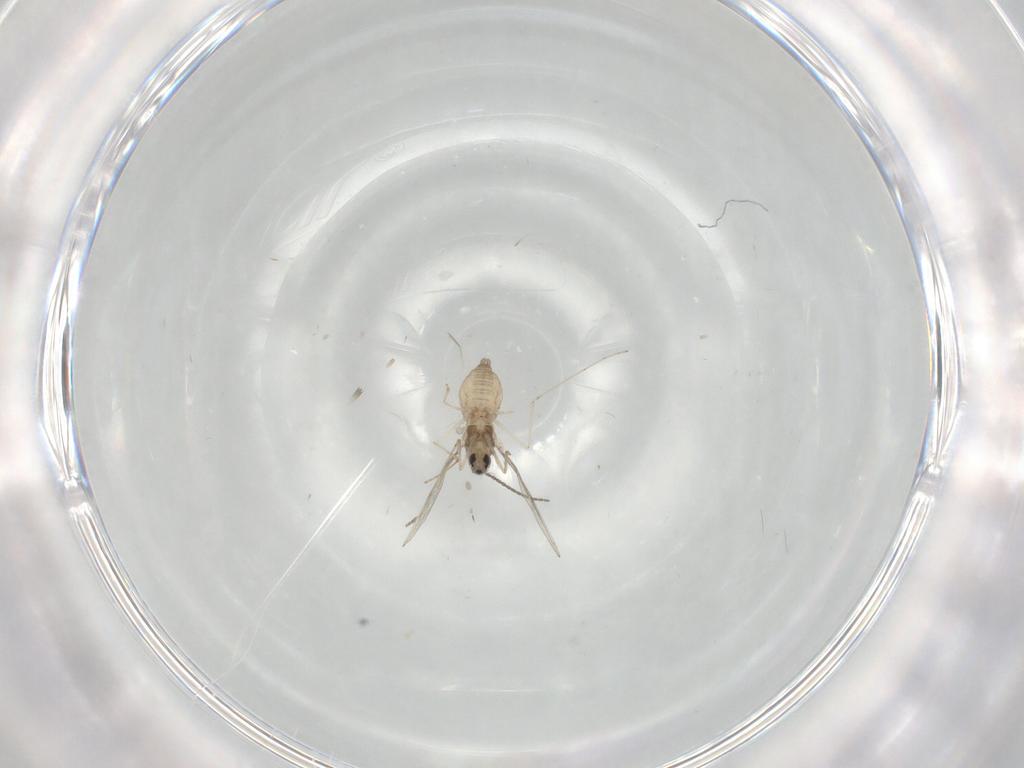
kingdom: Animalia
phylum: Arthropoda
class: Insecta
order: Diptera
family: Cecidomyiidae
